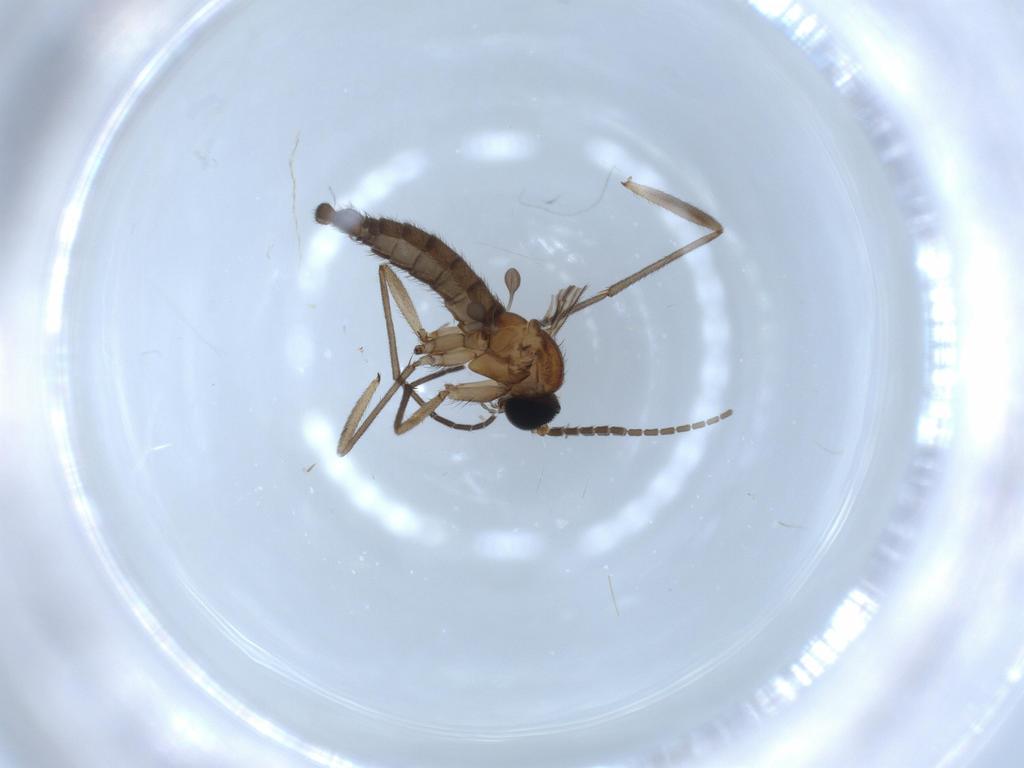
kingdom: Animalia
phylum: Arthropoda
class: Insecta
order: Diptera
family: Sciaridae
